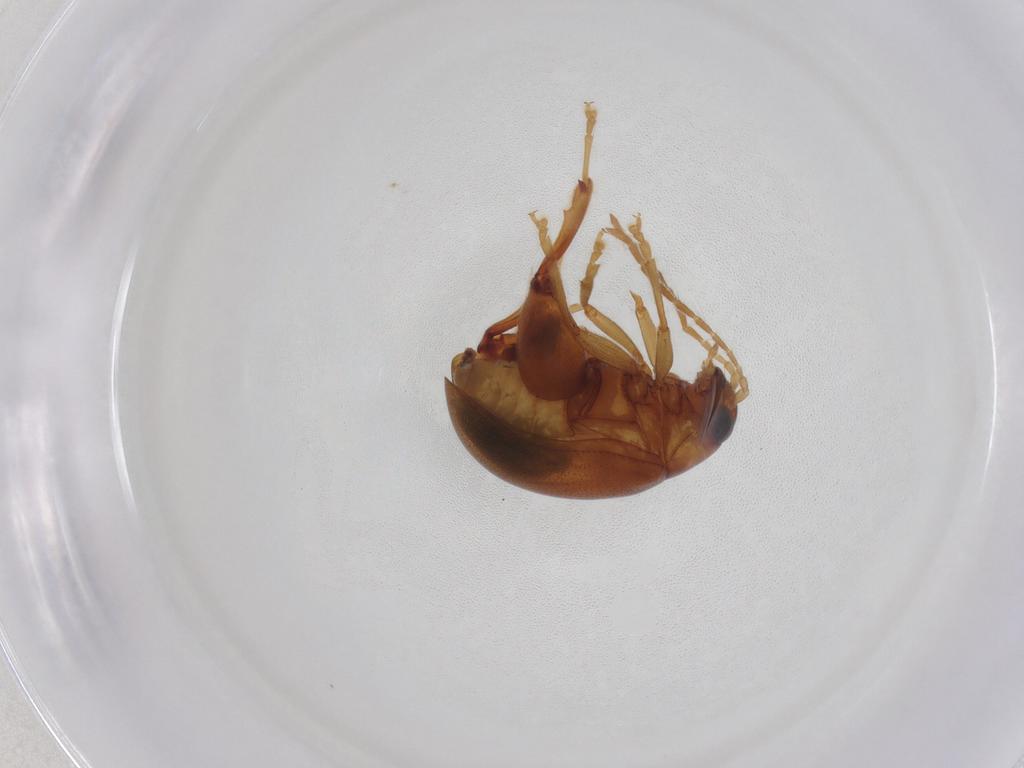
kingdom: Animalia
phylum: Arthropoda
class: Insecta
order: Coleoptera
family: Chrysomelidae
